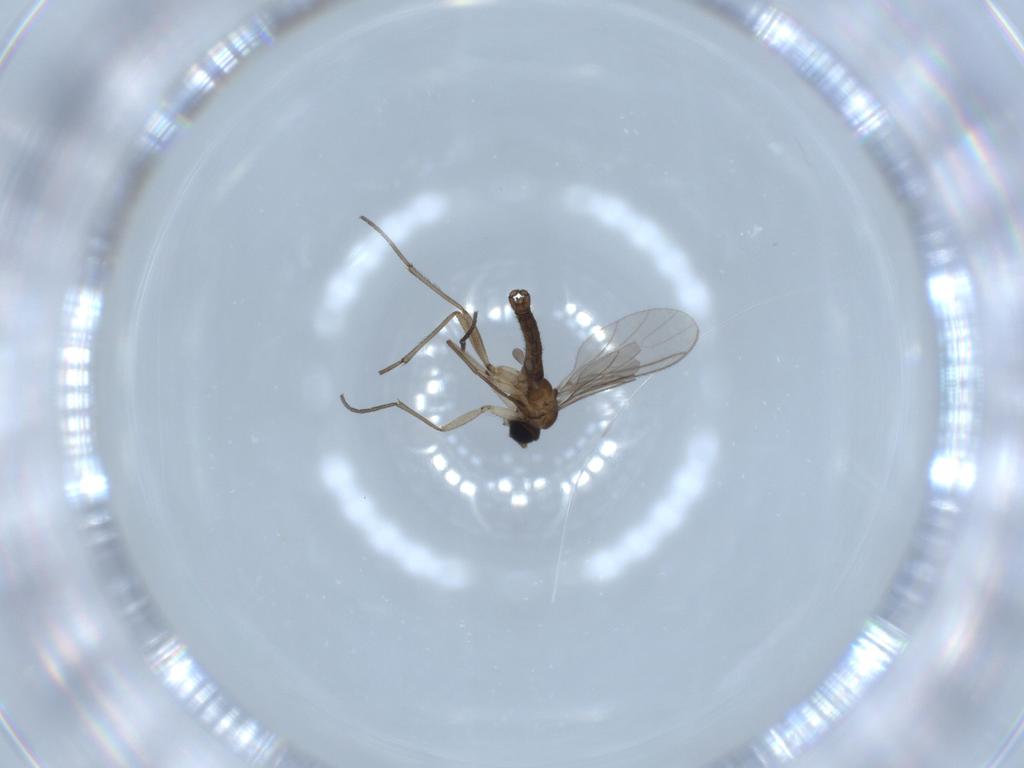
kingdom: Animalia
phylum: Arthropoda
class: Insecta
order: Diptera
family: Sciaridae
